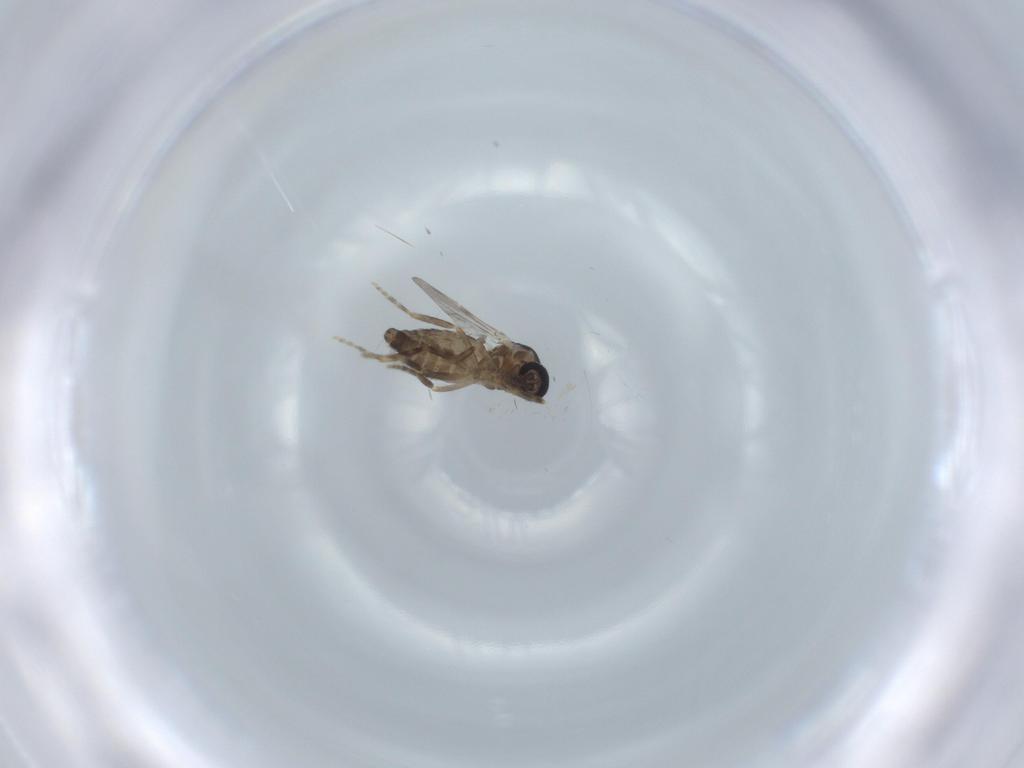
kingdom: Animalia
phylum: Arthropoda
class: Insecta
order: Diptera
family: Ceratopogonidae
